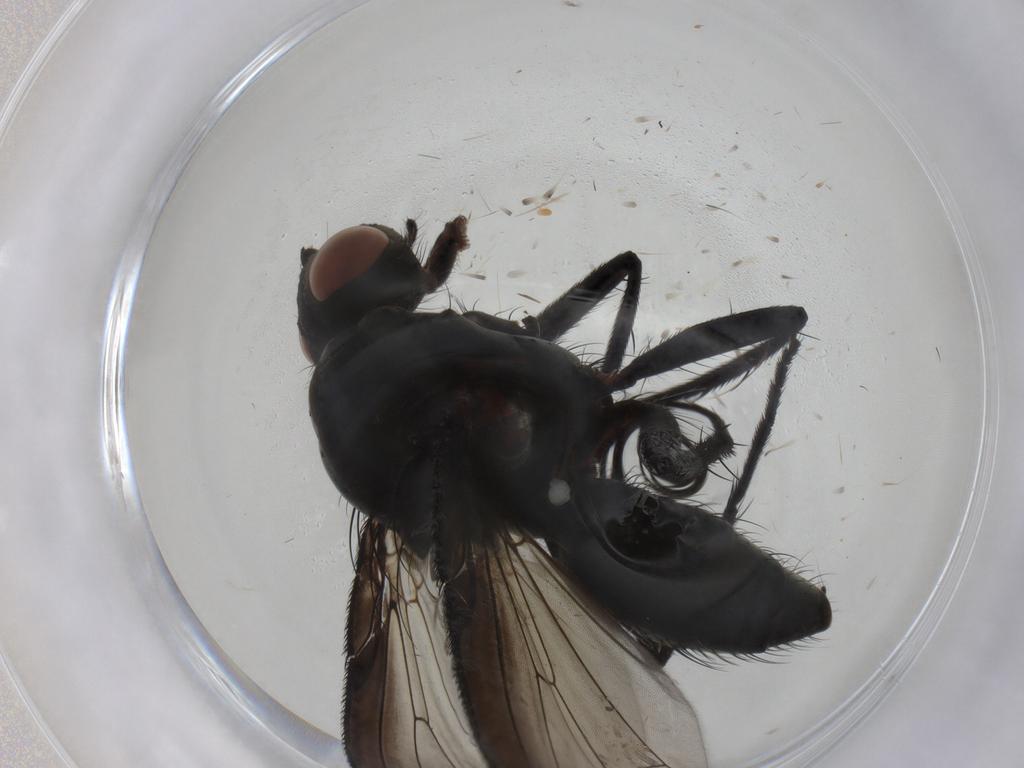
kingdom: Animalia
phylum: Arthropoda
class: Insecta
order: Diptera
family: Anthomyiidae
